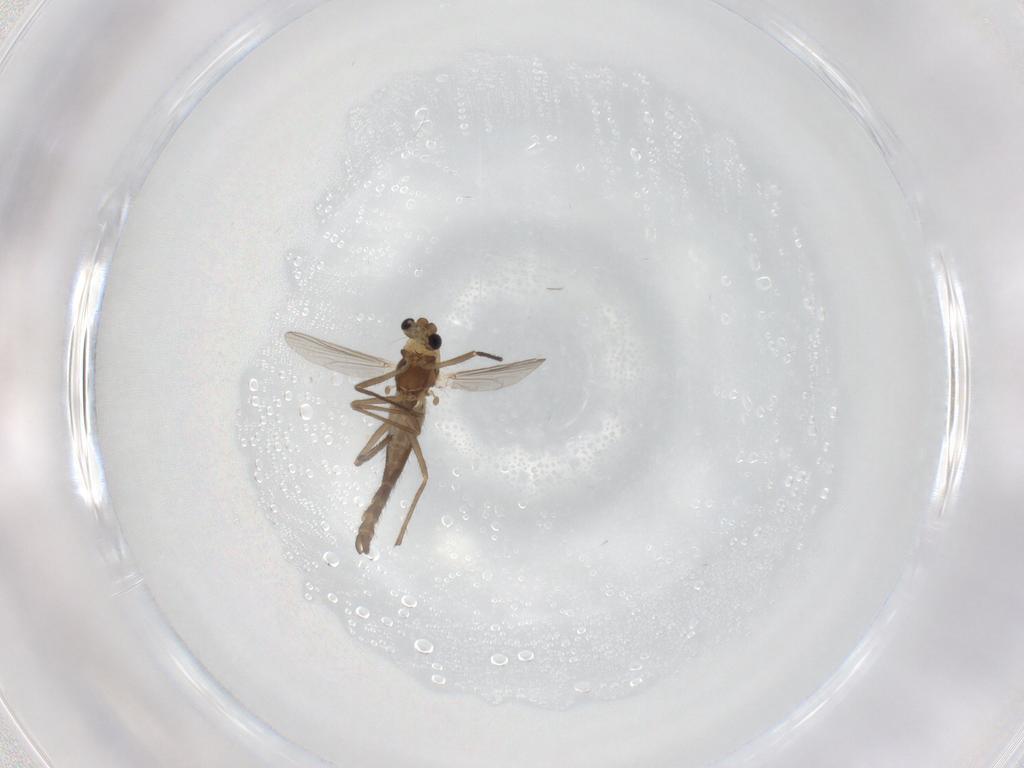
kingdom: Animalia
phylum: Arthropoda
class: Insecta
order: Diptera
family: Chironomidae
